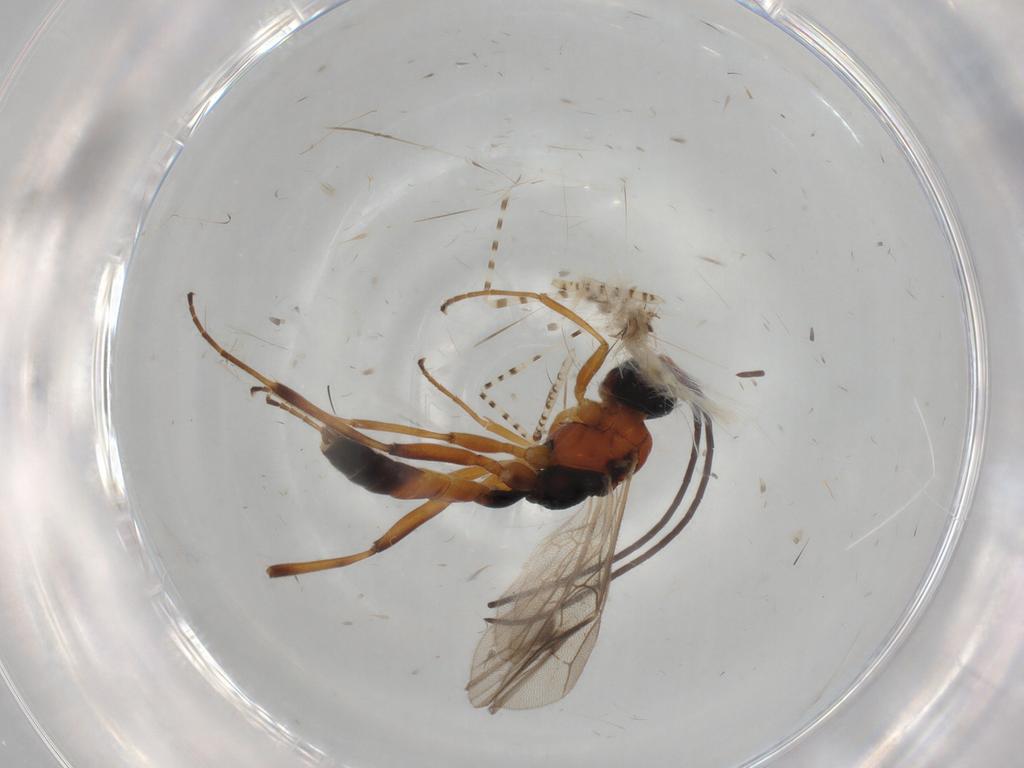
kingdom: Animalia
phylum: Arthropoda
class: Insecta
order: Hymenoptera
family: Ichneumonidae
